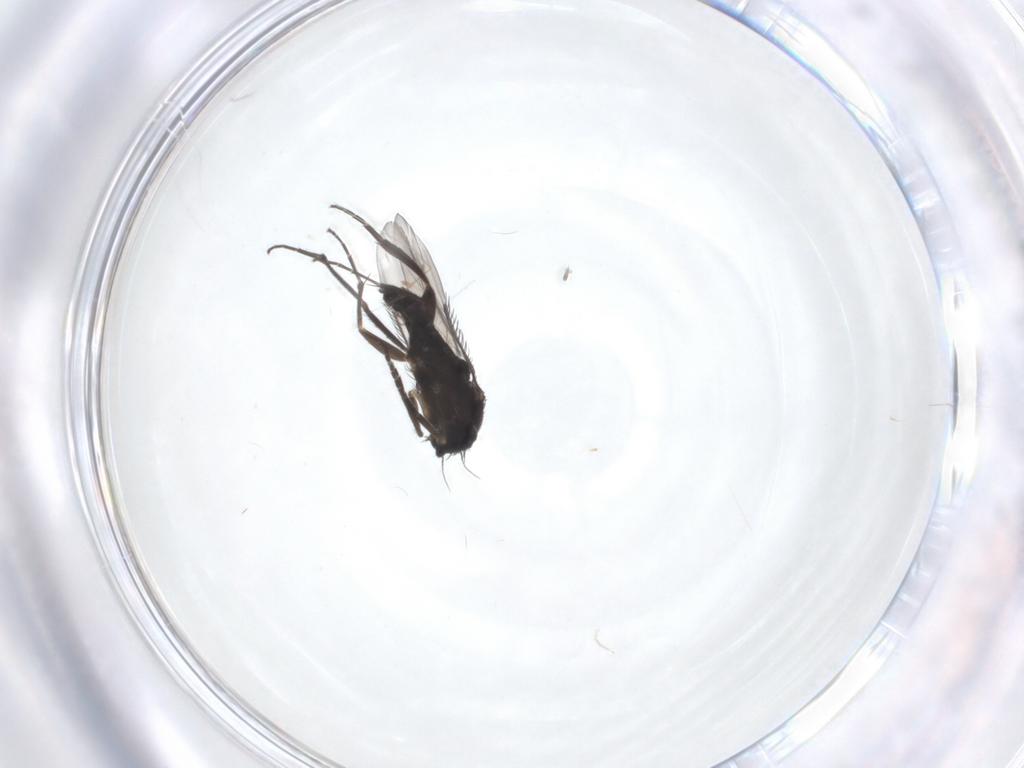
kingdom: Animalia
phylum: Arthropoda
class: Insecta
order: Diptera
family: Phoridae
